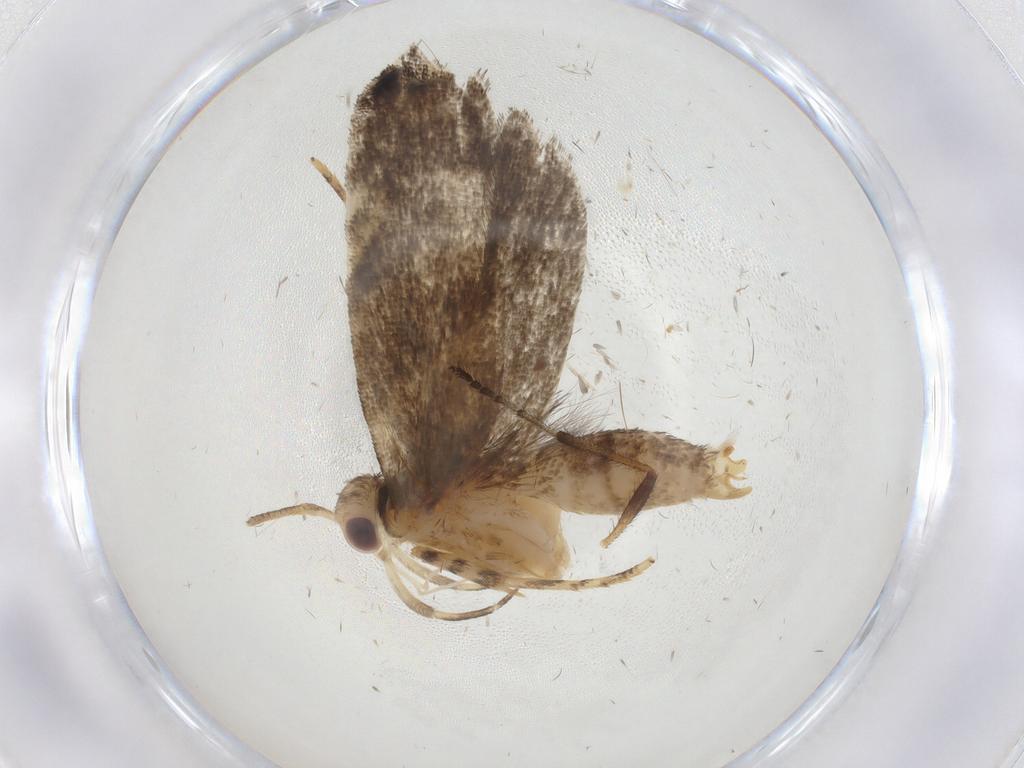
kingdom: Animalia
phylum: Arthropoda
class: Insecta
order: Lepidoptera
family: Gelechiidae
